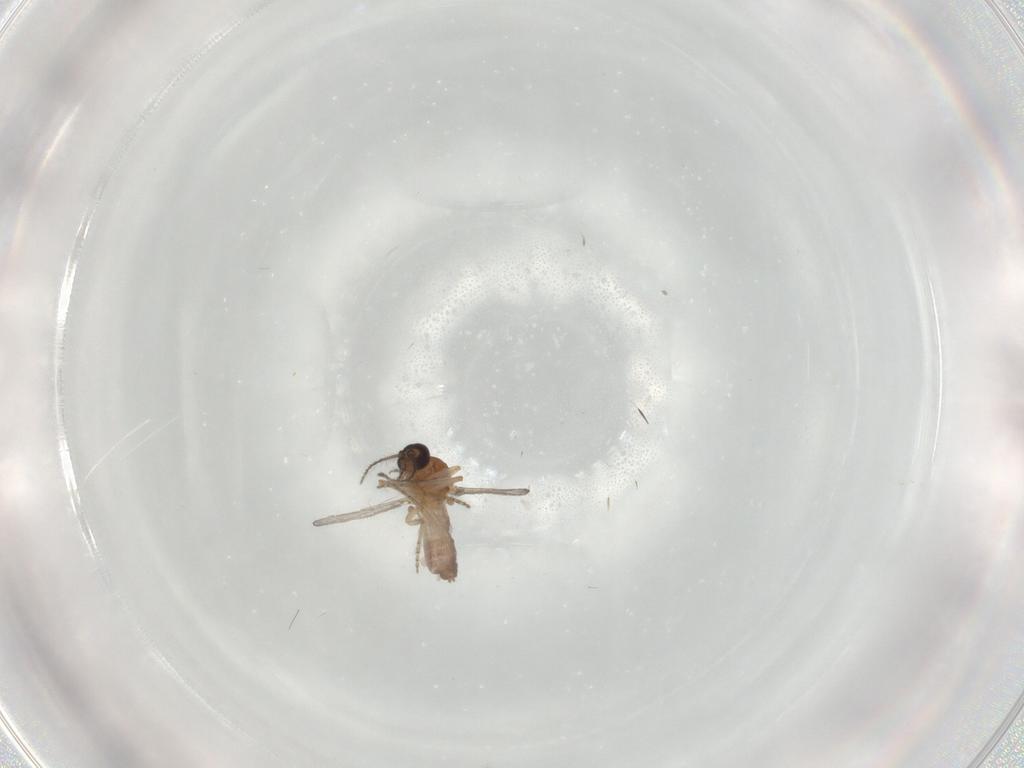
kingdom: Animalia
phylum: Arthropoda
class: Insecta
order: Diptera
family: Ceratopogonidae
